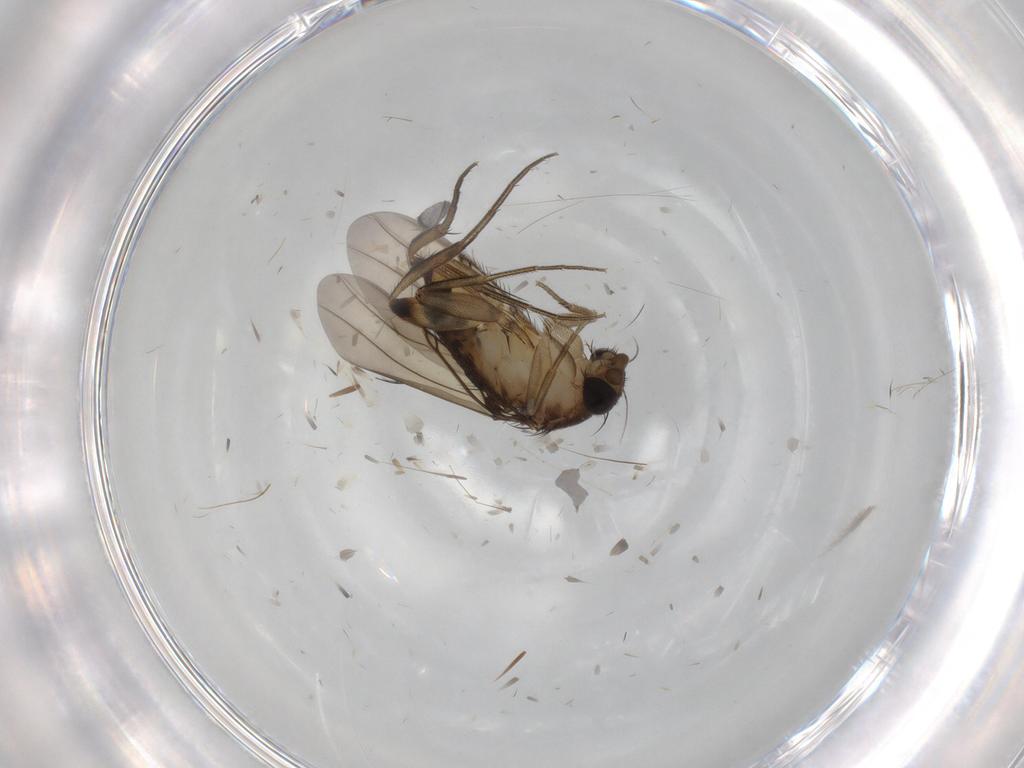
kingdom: Animalia
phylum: Arthropoda
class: Insecta
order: Diptera
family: Phoridae
